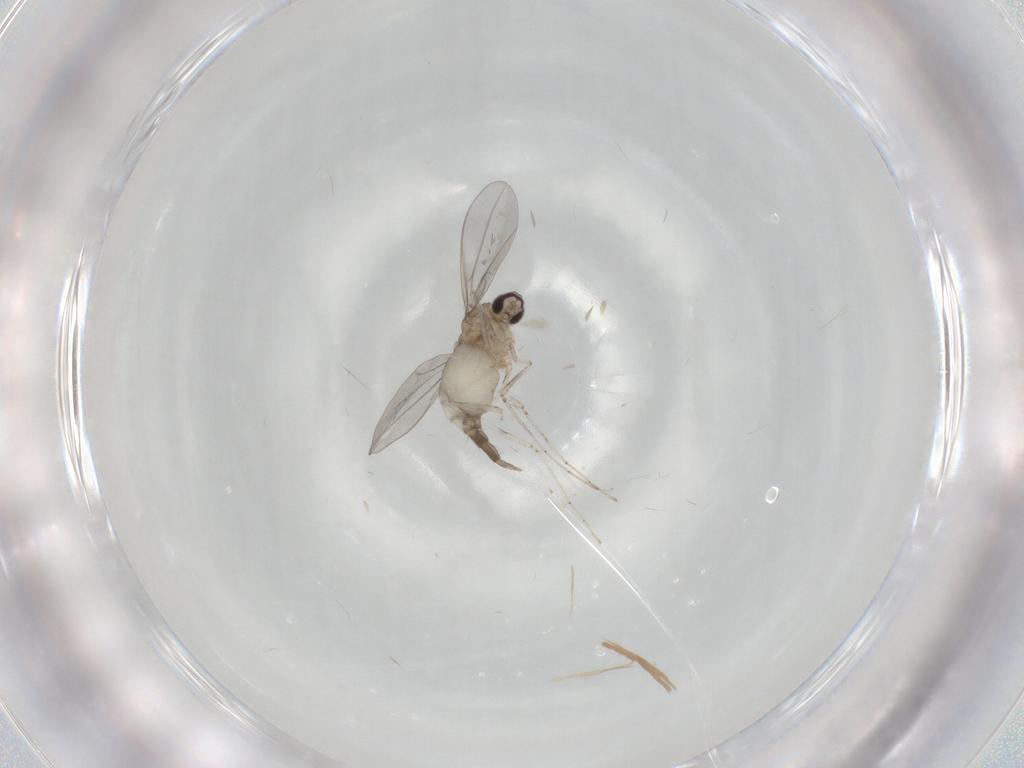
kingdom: Animalia
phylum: Arthropoda
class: Insecta
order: Diptera
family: Cecidomyiidae
